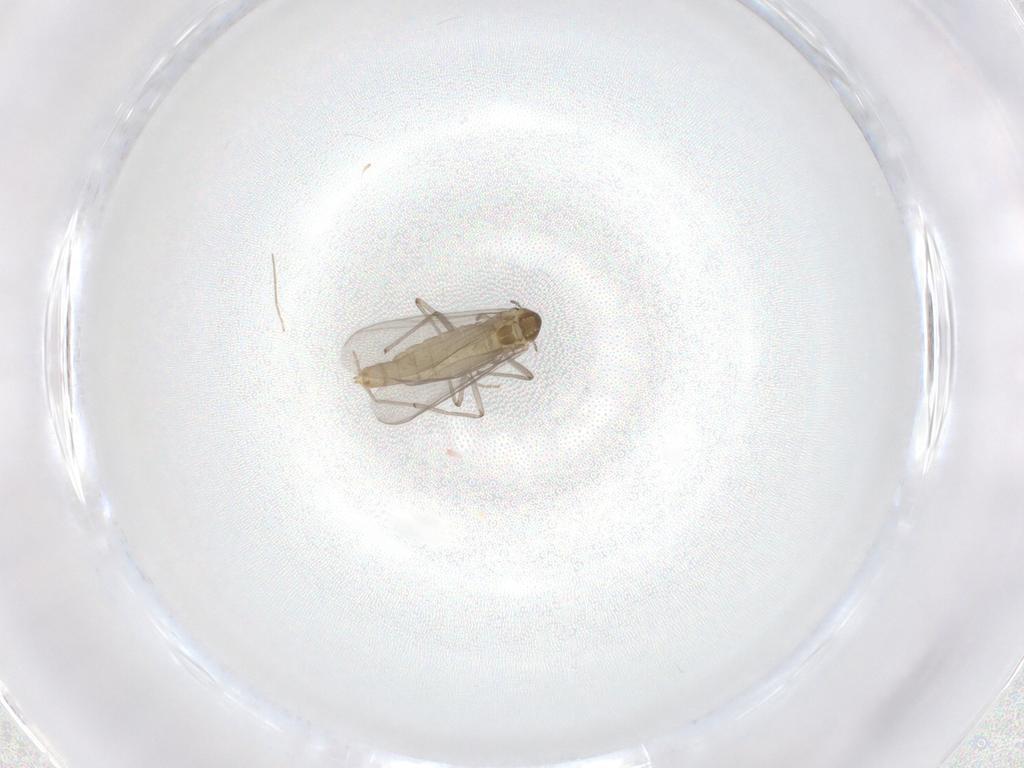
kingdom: Animalia
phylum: Arthropoda
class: Insecta
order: Diptera
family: Chironomidae
